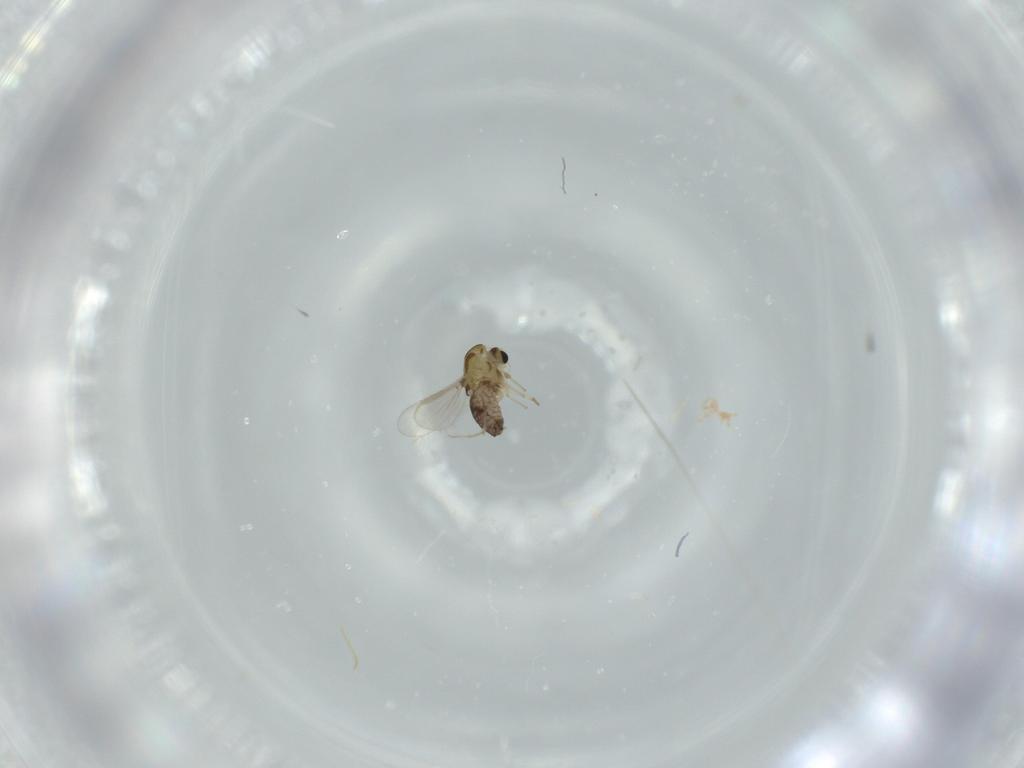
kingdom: Animalia
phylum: Arthropoda
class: Insecta
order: Diptera
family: Chironomidae
